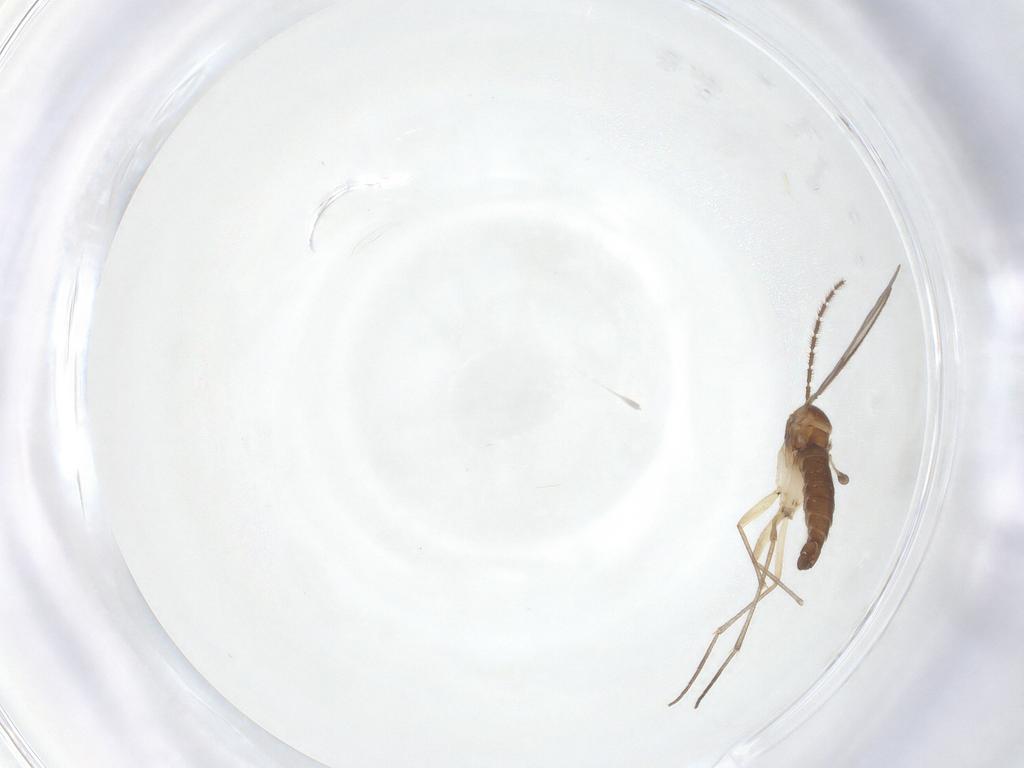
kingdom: Animalia
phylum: Arthropoda
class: Insecta
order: Diptera
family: Sciaridae
